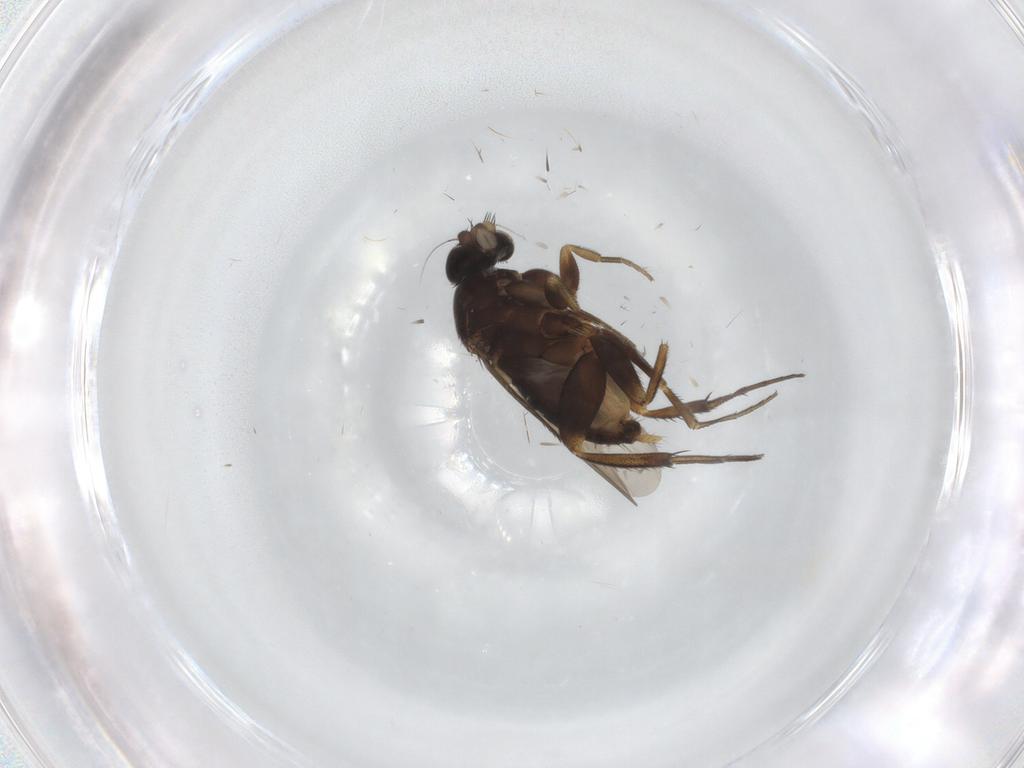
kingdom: Animalia
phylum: Arthropoda
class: Insecta
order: Diptera
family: Phoridae
